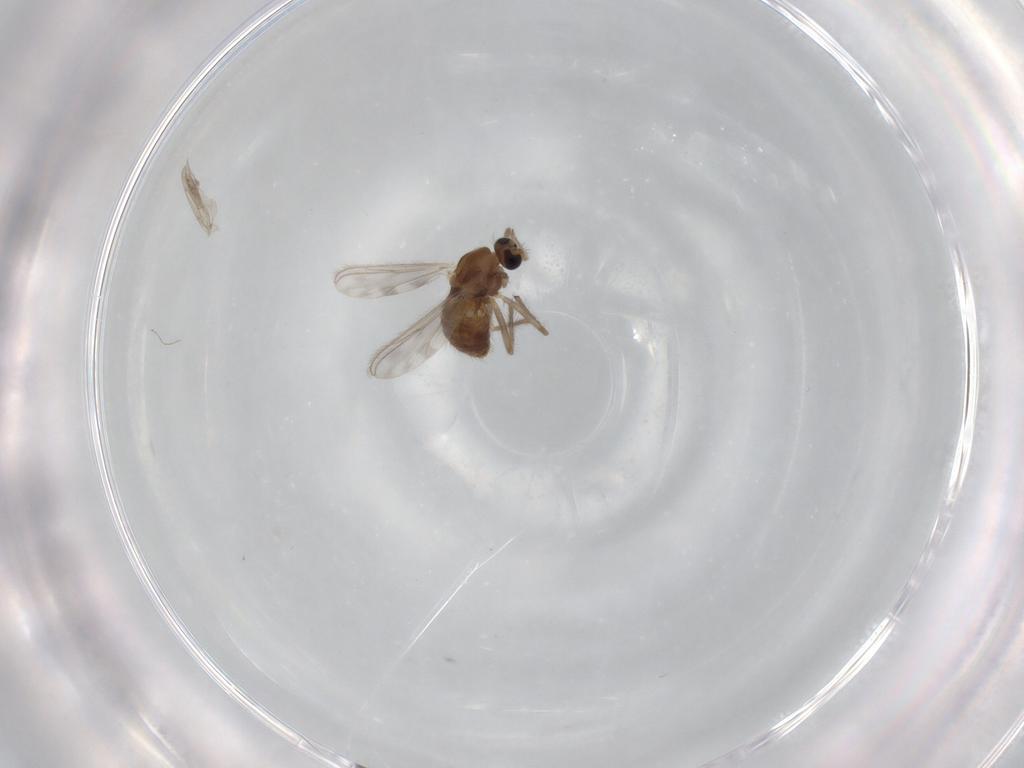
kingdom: Animalia
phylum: Arthropoda
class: Insecta
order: Diptera
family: Chironomidae
